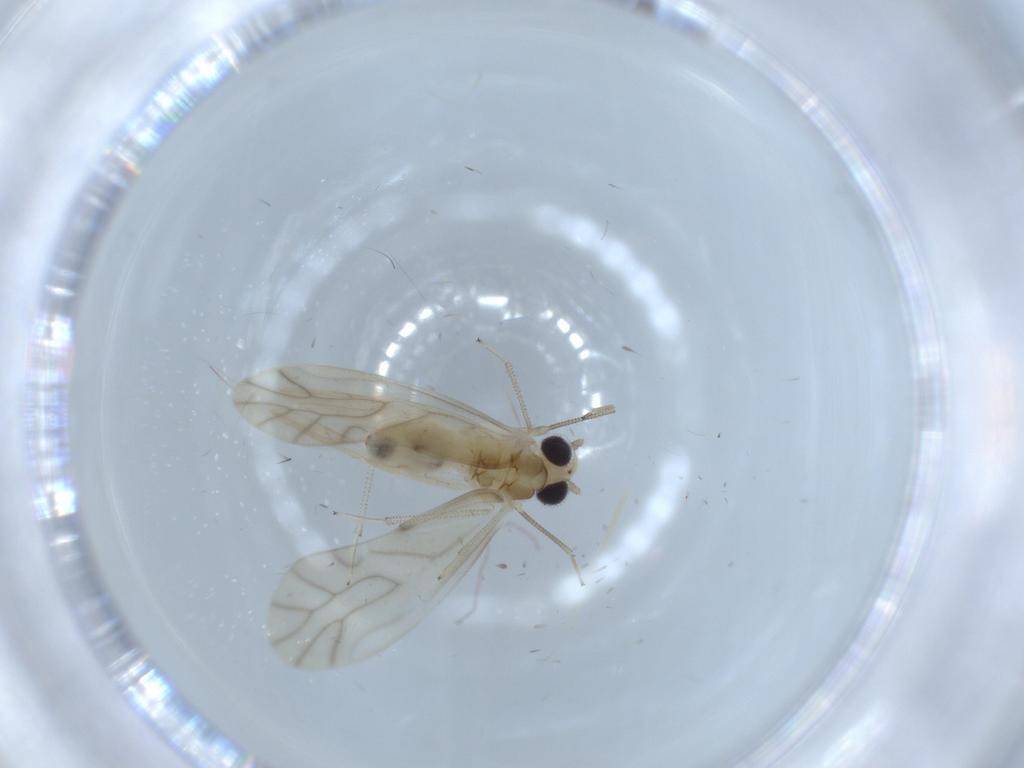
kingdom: Animalia
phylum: Arthropoda
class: Insecta
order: Psocodea
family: Caeciliusidae
